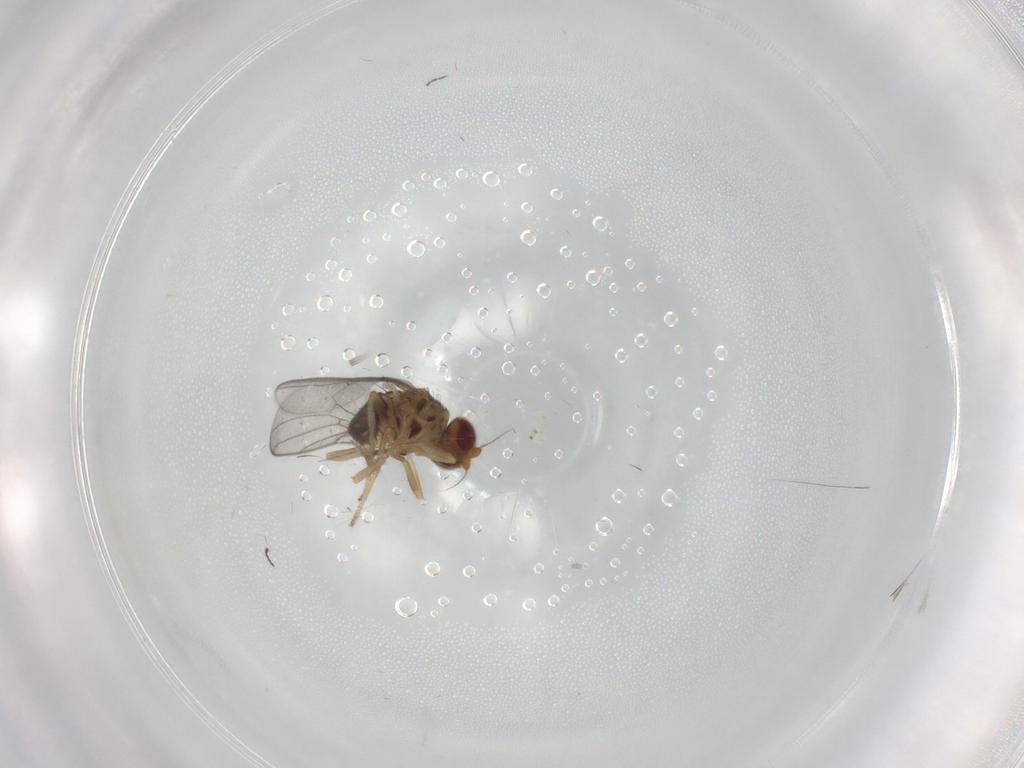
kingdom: Animalia
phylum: Arthropoda
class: Insecta
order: Diptera
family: Chloropidae
